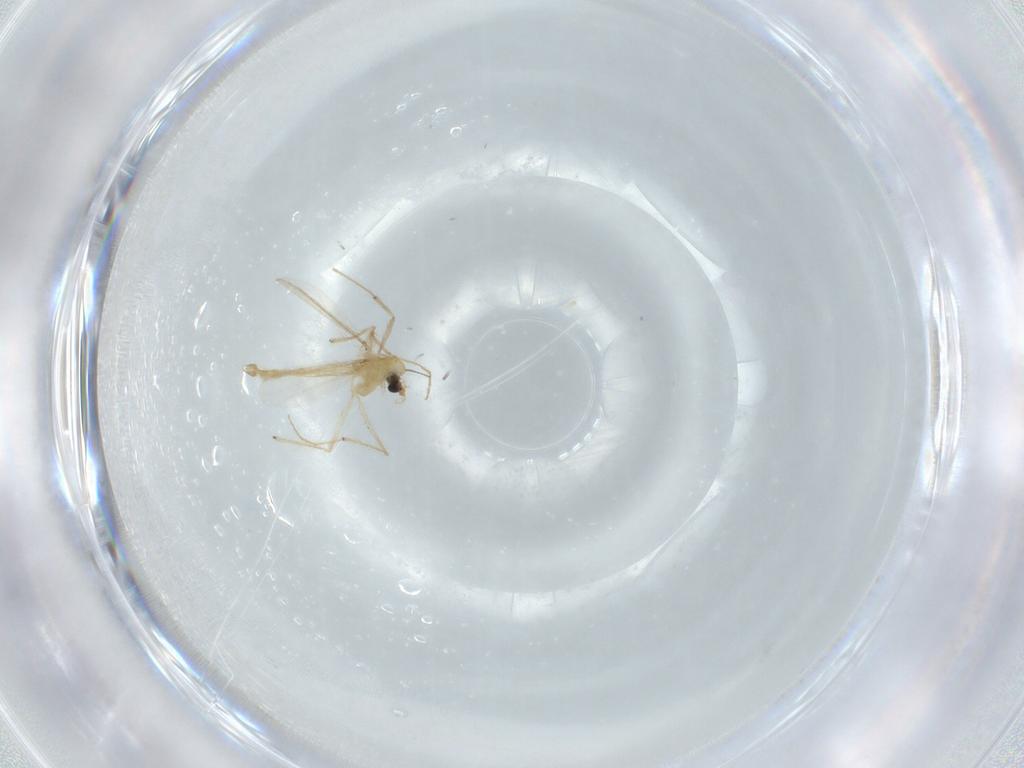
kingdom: Animalia
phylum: Arthropoda
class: Insecta
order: Diptera
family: Chironomidae
